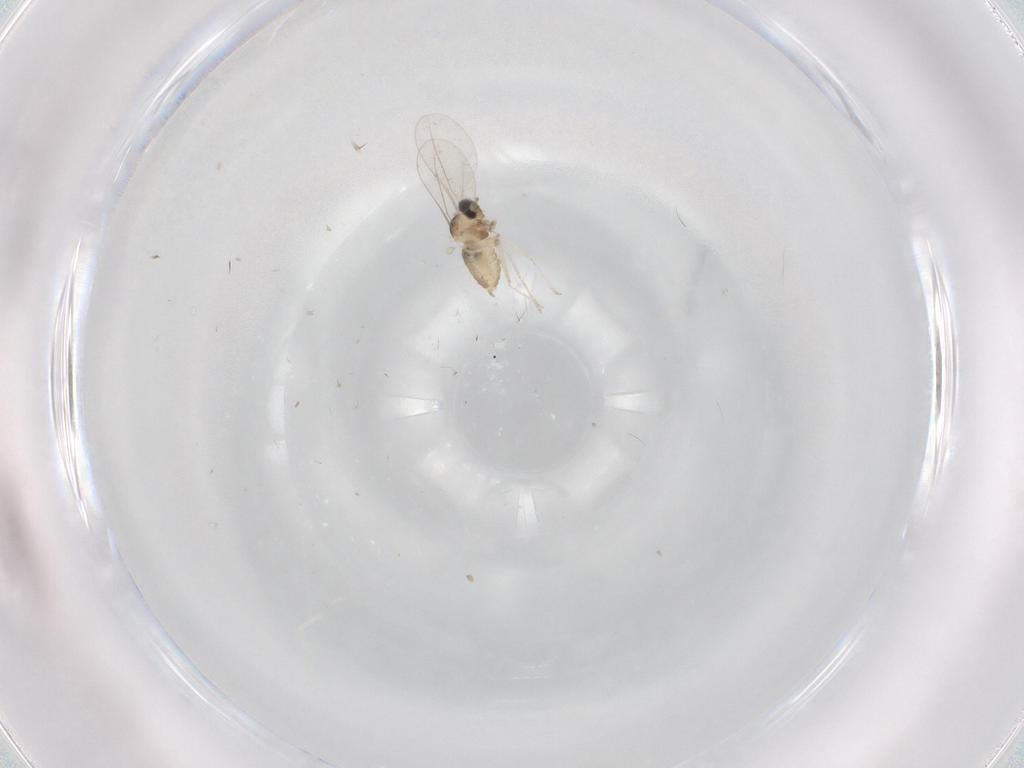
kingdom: Animalia
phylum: Arthropoda
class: Insecta
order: Diptera
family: Cecidomyiidae
